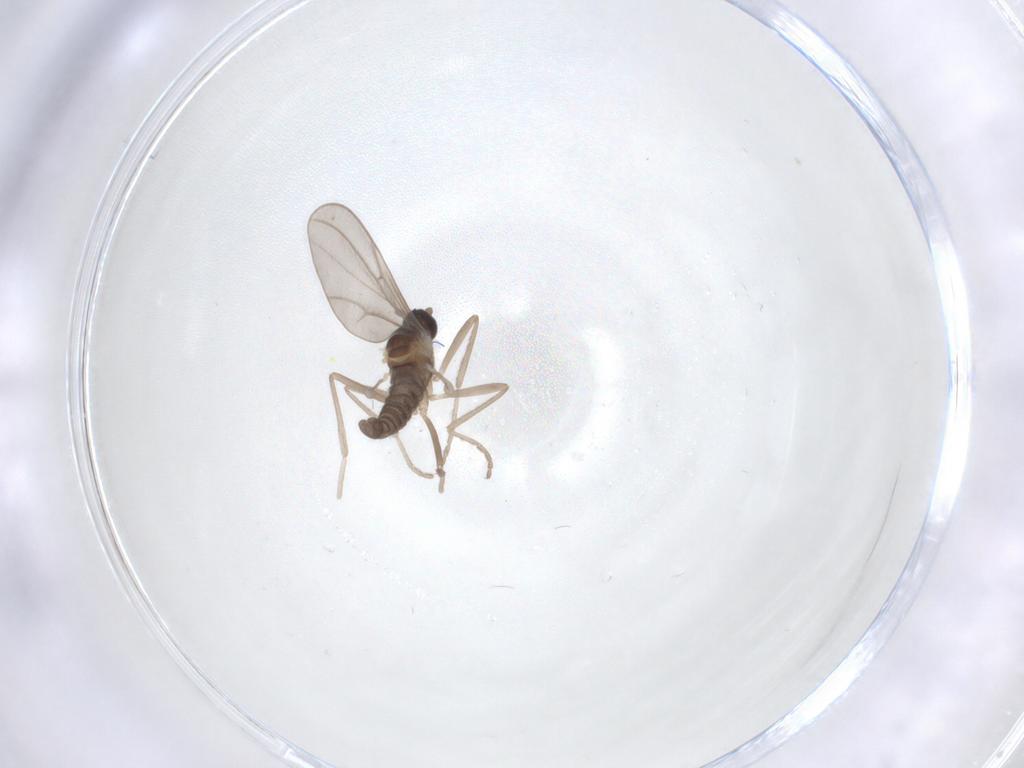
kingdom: Animalia
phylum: Arthropoda
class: Insecta
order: Diptera
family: Cecidomyiidae
